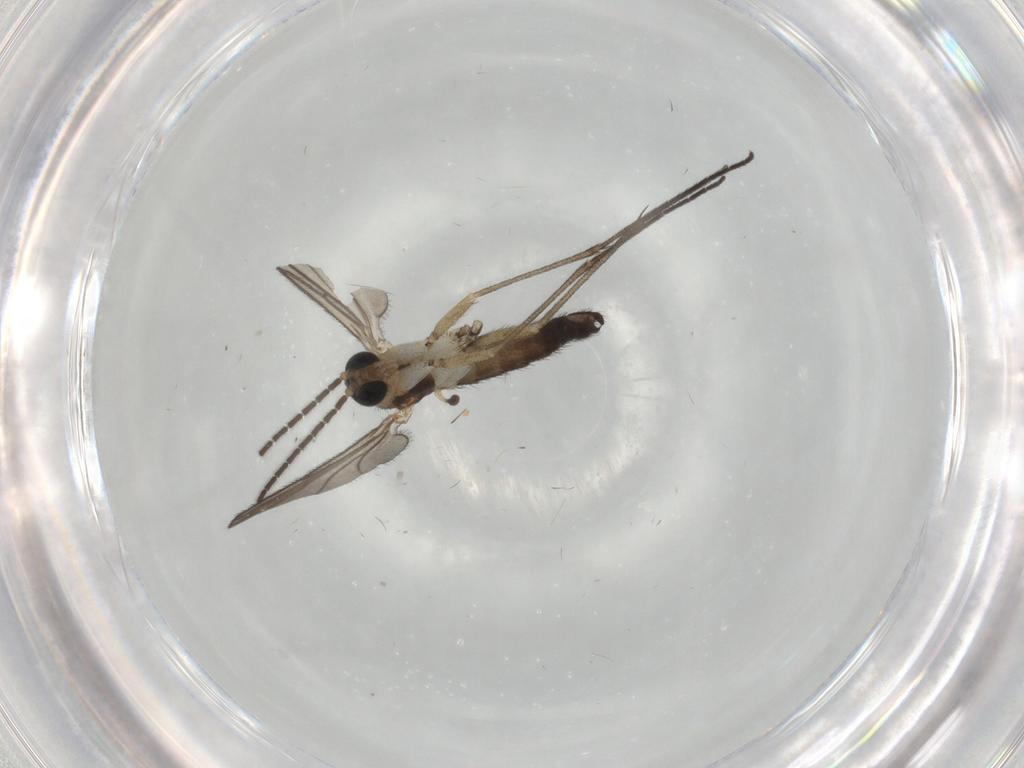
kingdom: Animalia
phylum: Arthropoda
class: Insecta
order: Diptera
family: Sciaridae
